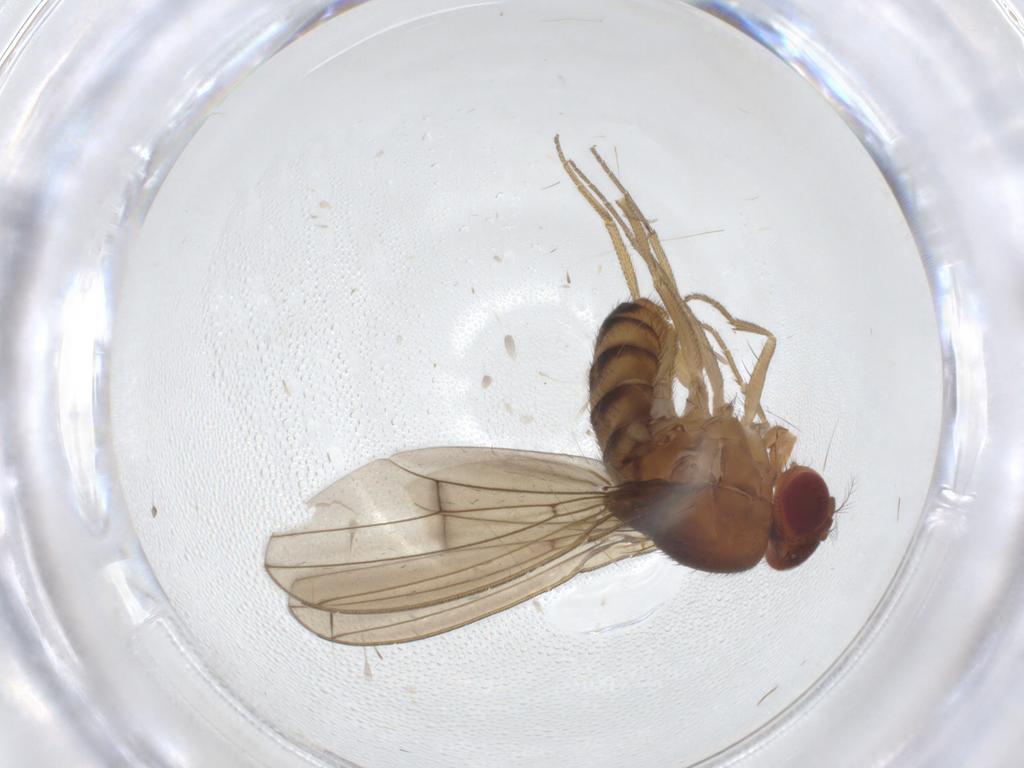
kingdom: Animalia
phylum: Arthropoda
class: Insecta
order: Diptera
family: Drosophilidae
